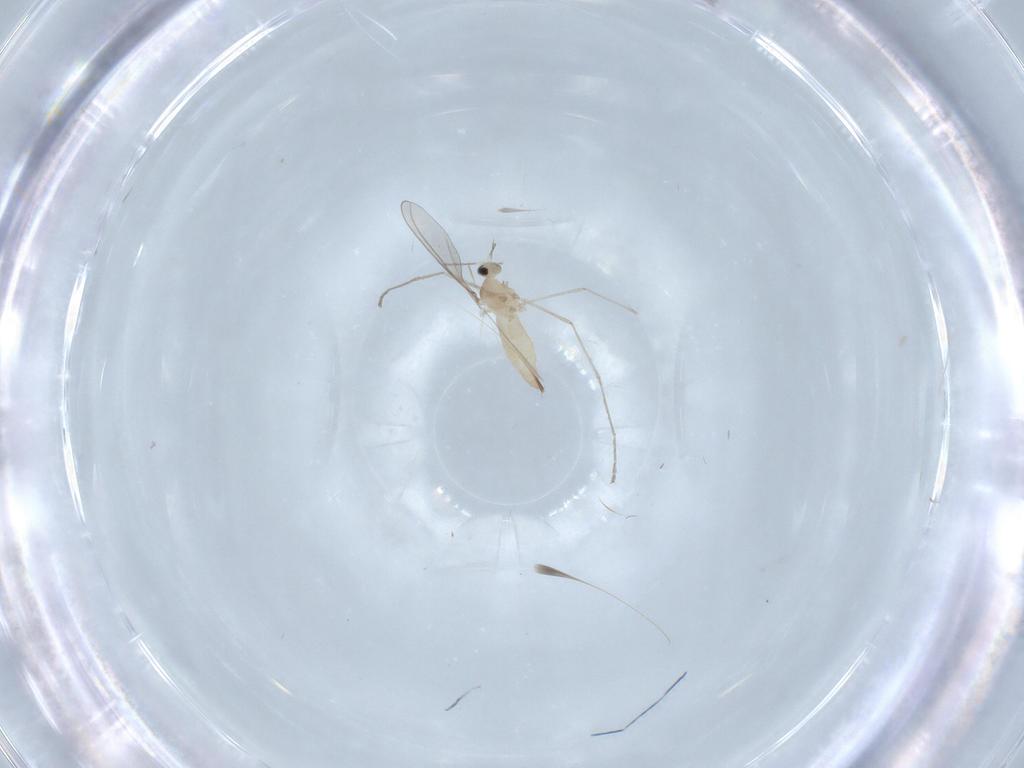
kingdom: Animalia
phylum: Arthropoda
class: Insecta
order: Diptera
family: Cecidomyiidae
